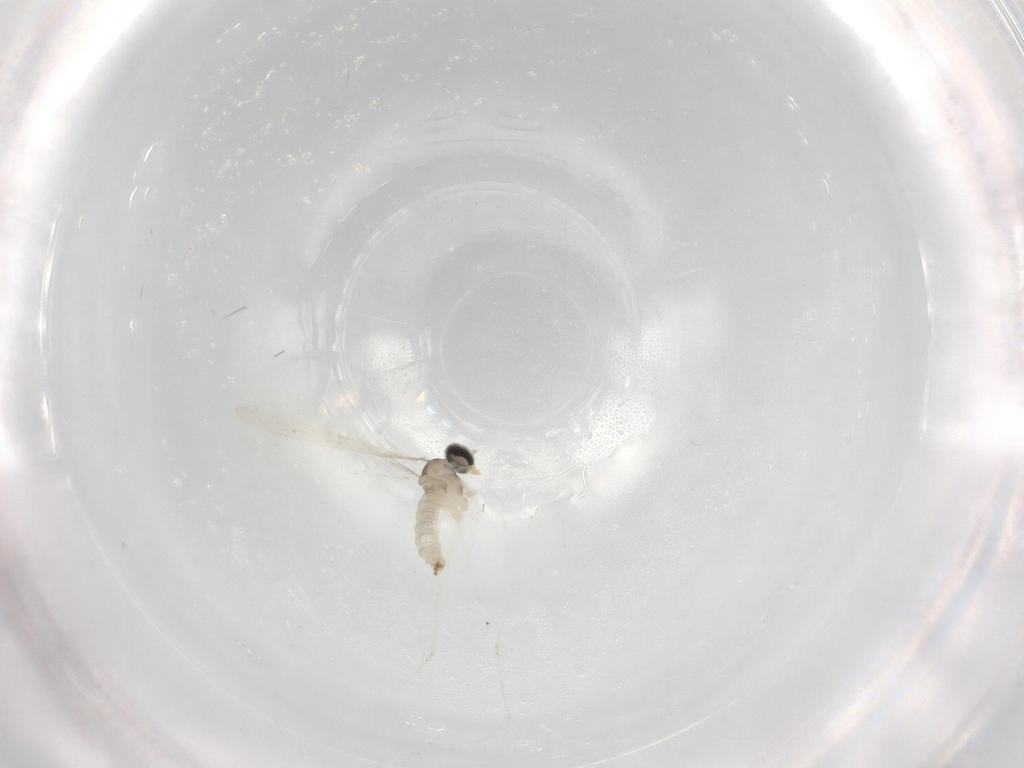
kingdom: Animalia
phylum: Arthropoda
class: Insecta
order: Diptera
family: Cecidomyiidae
